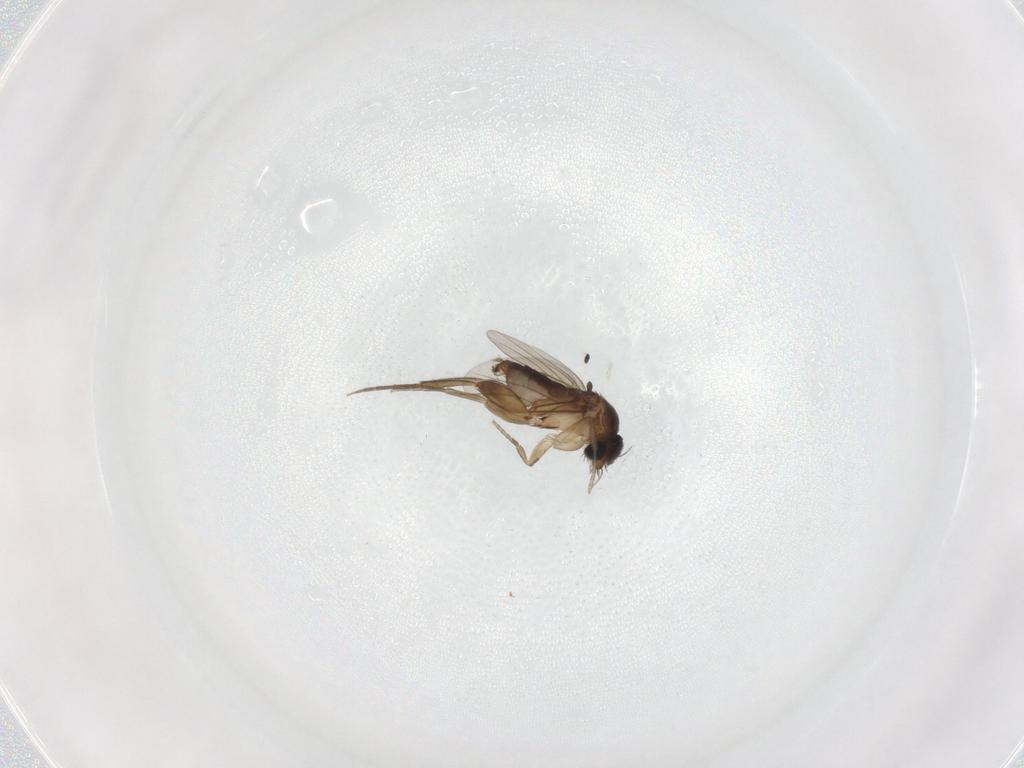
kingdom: Animalia
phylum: Arthropoda
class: Insecta
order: Diptera
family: Phoridae
